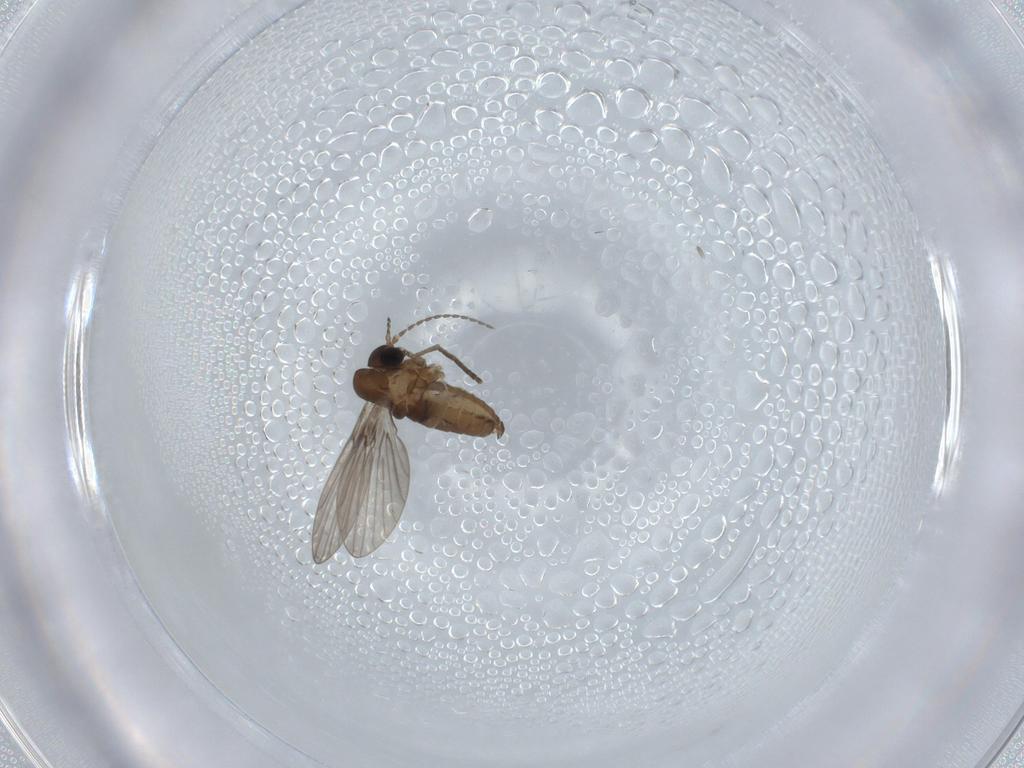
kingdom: Animalia
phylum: Arthropoda
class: Insecta
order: Diptera
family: Psychodidae
